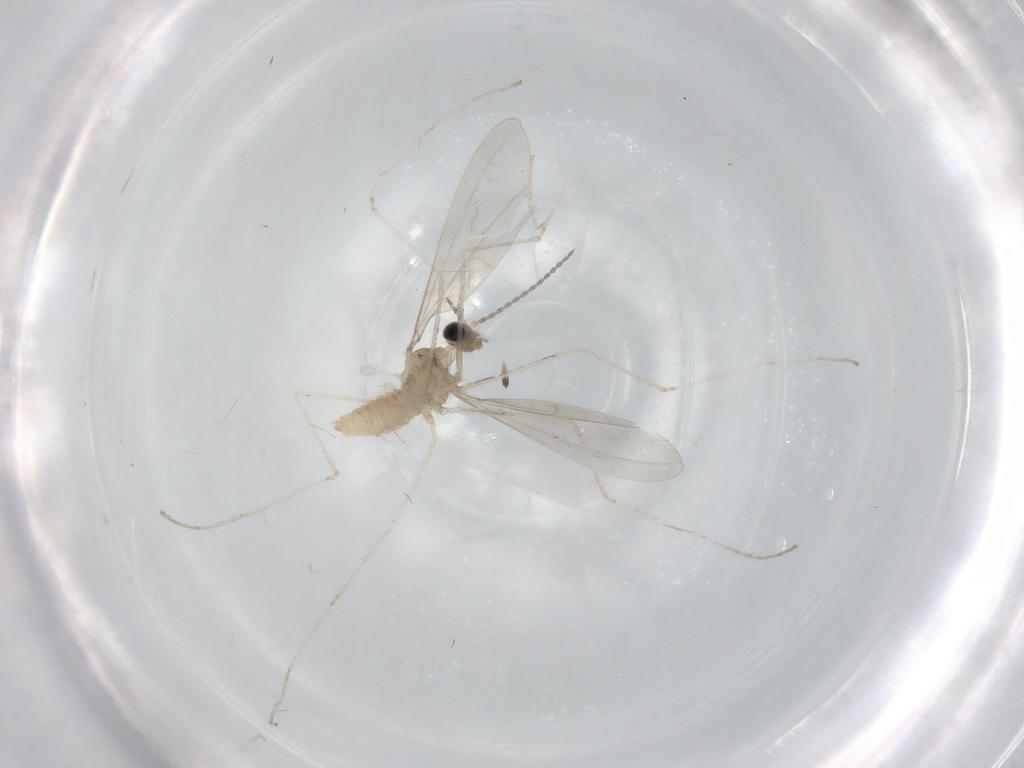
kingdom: Animalia
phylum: Arthropoda
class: Insecta
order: Diptera
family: Cecidomyiidae
